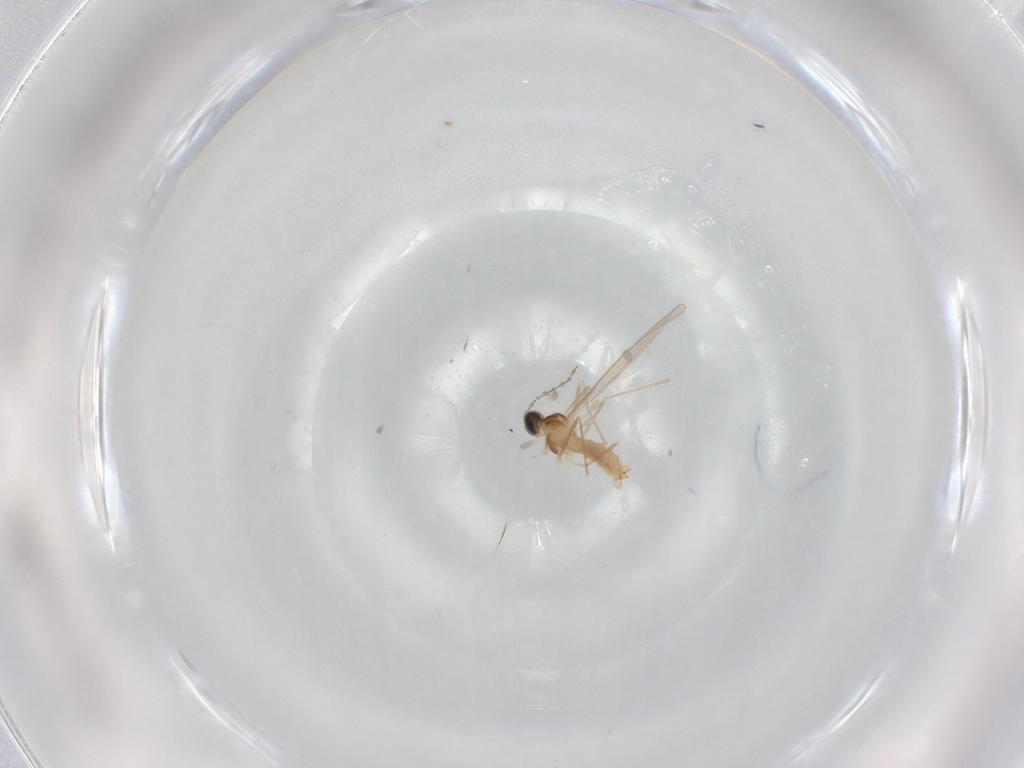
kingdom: Animalia
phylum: Arthropoda
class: Insecta
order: Diptera
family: Cecidomyiidae
